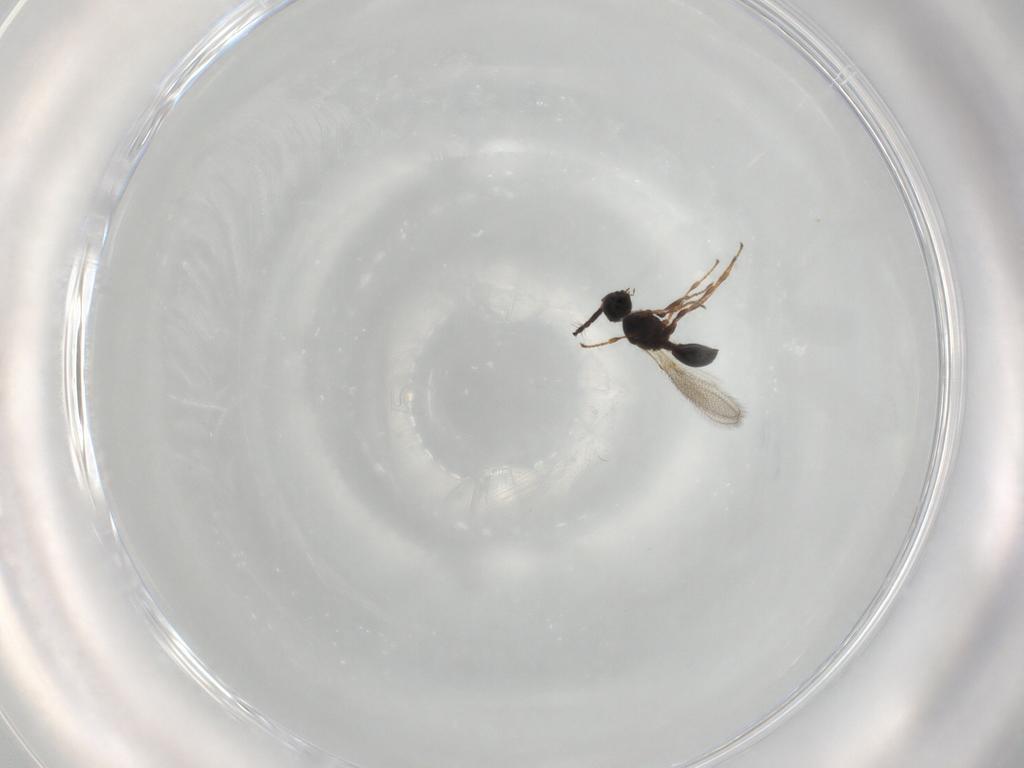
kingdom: Animalia
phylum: Arthropoda
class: Insecta
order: Hymenoptera
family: Diapriidae
